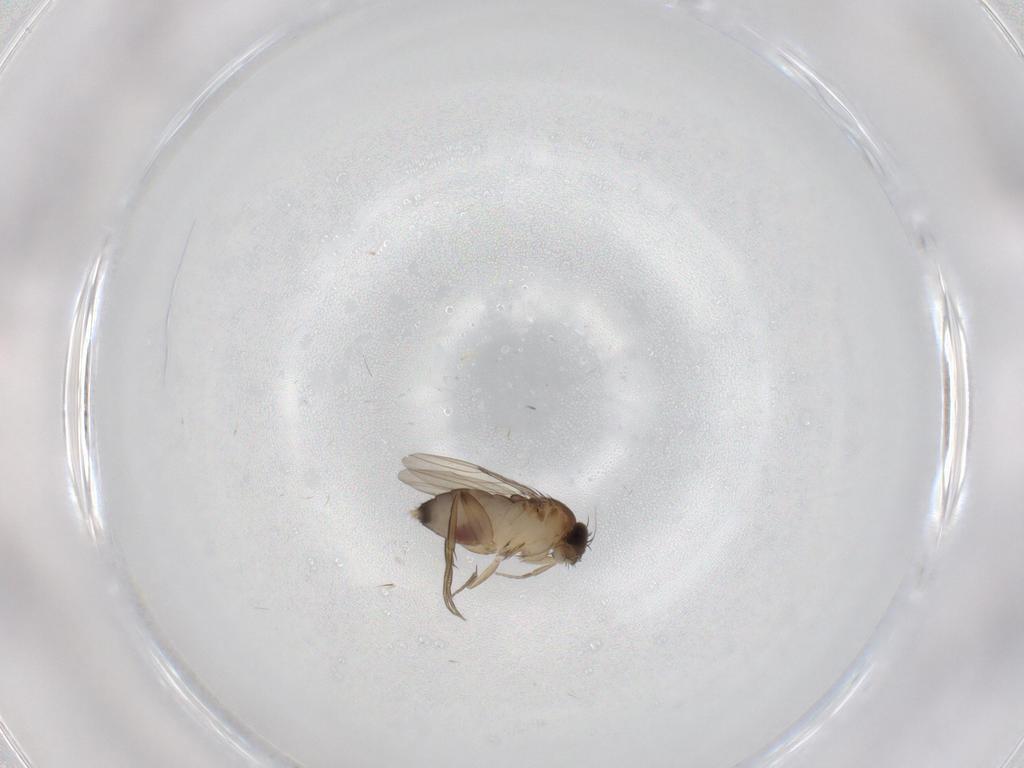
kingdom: Animalia
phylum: Arthropoda
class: Insecta
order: Diptera
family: Phoridae
